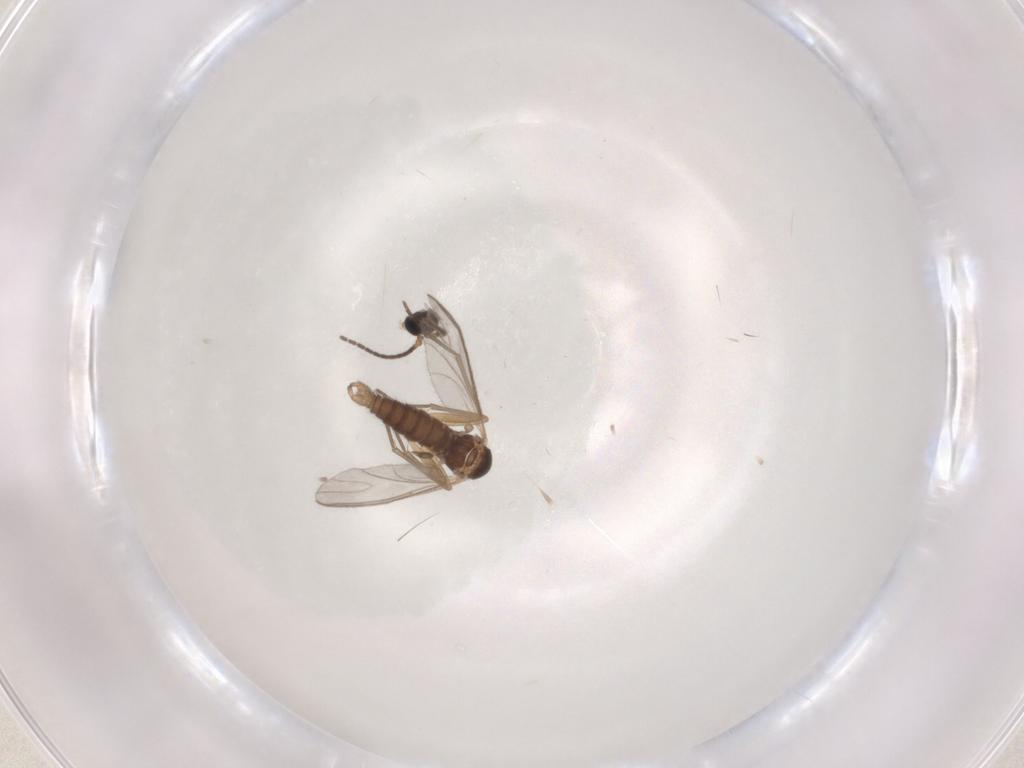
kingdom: Animalia
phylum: Arthropoda
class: Insecta
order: Diptera
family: Sciaridae
